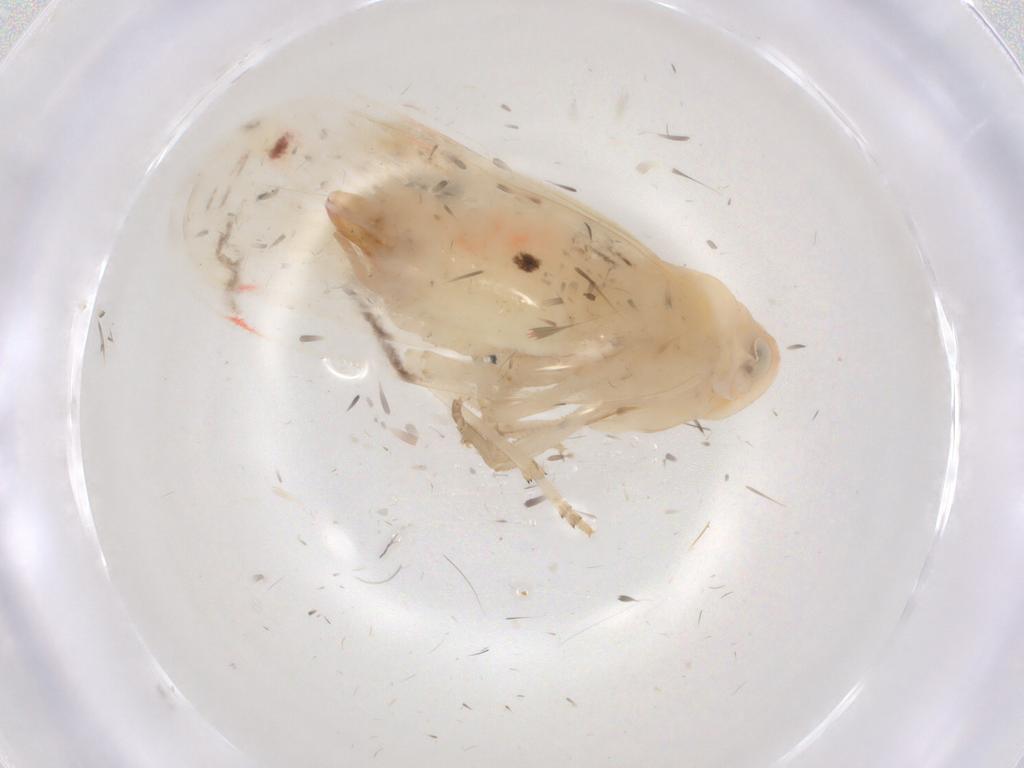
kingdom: Animalia
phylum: Arthropoda
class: Insecta
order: Hemiptera
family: Derbidae
